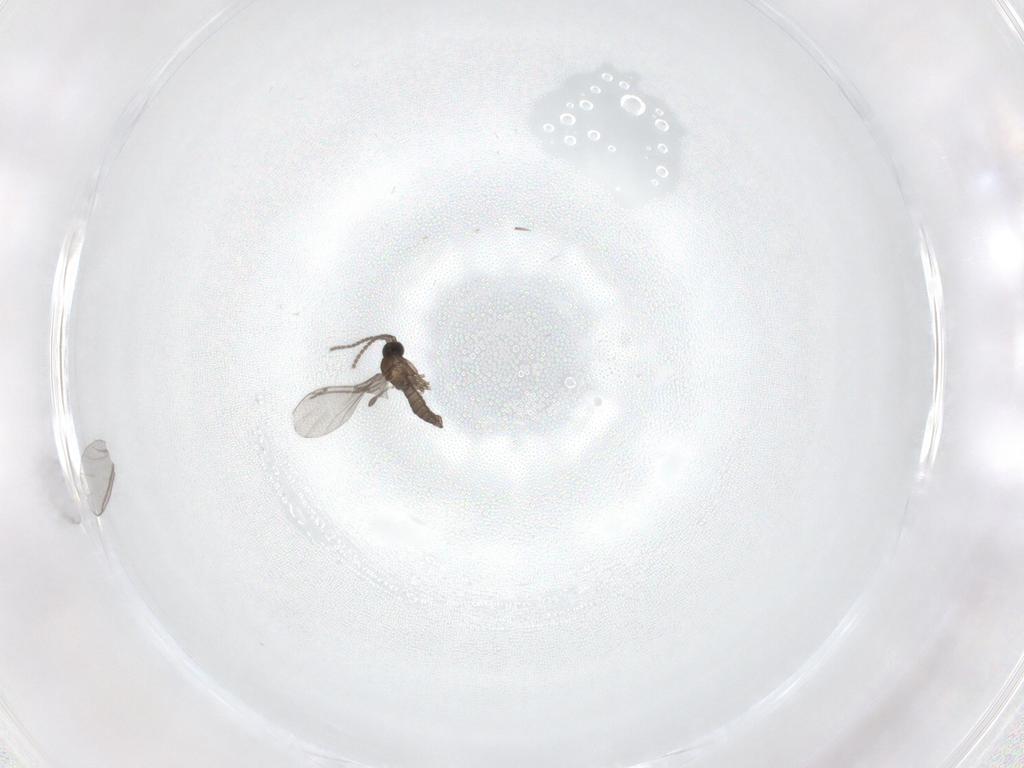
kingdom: Animalia
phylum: Arthropoda
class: Insecta
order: Diptera
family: Sciaridae
